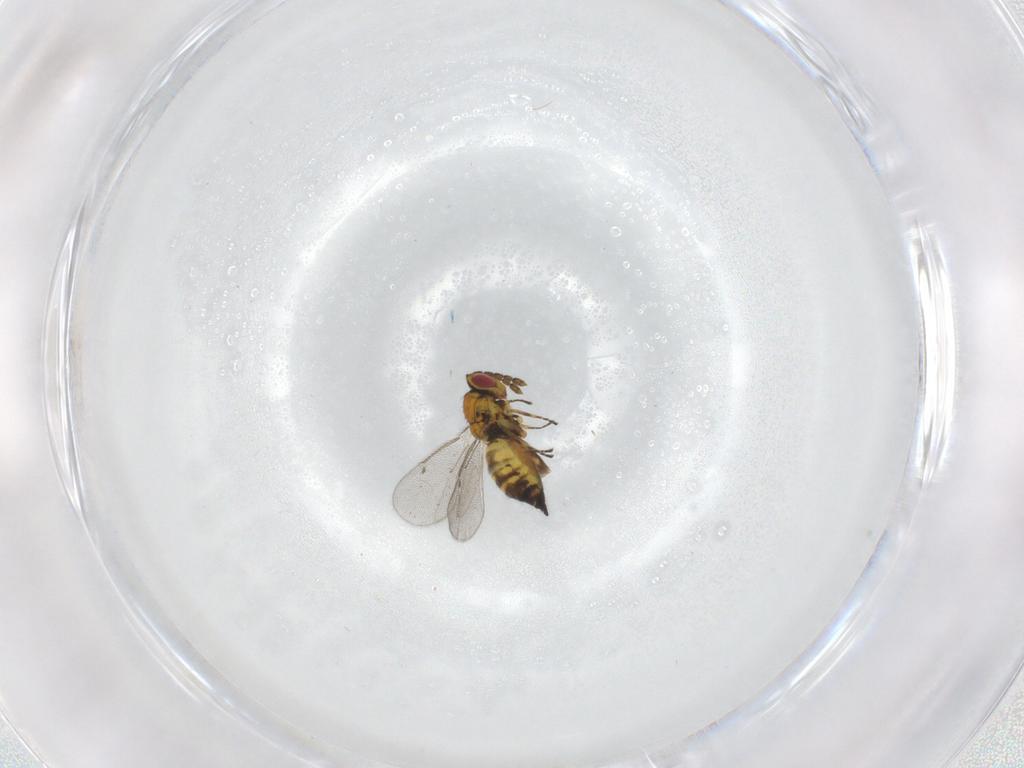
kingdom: Animalia
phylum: Arthropoda
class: Insecta
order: Hymenoptera
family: Eulophidae
